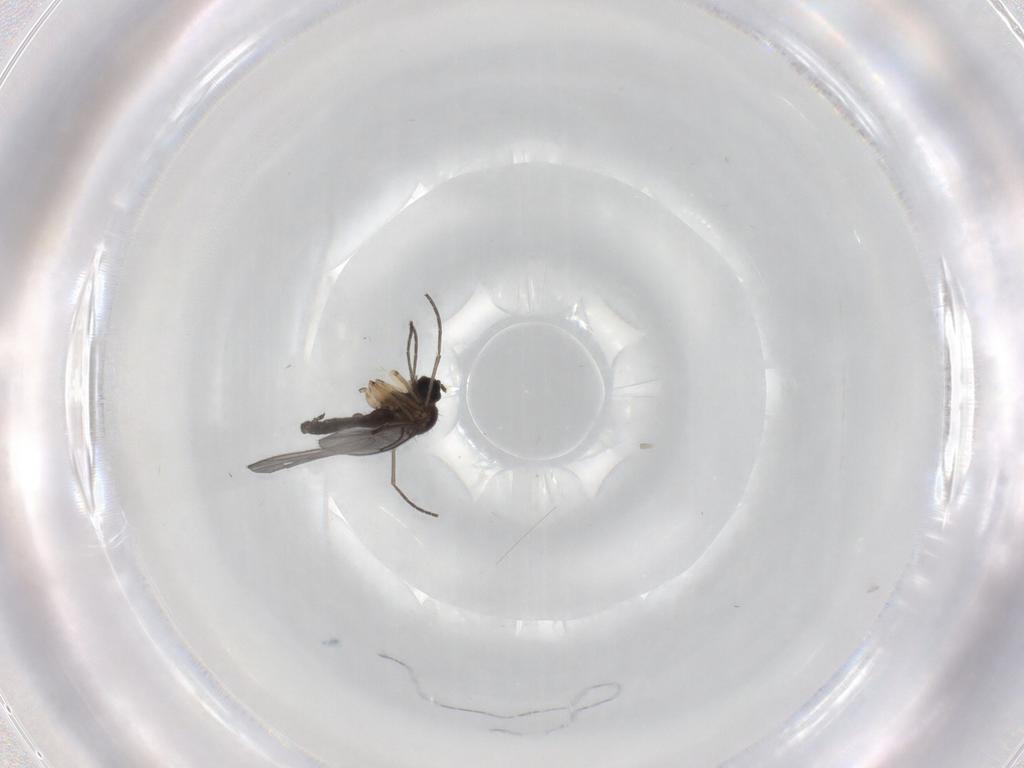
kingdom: Animalia
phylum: Arthropoda
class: Insecta
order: Diptera
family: Sciaridae
